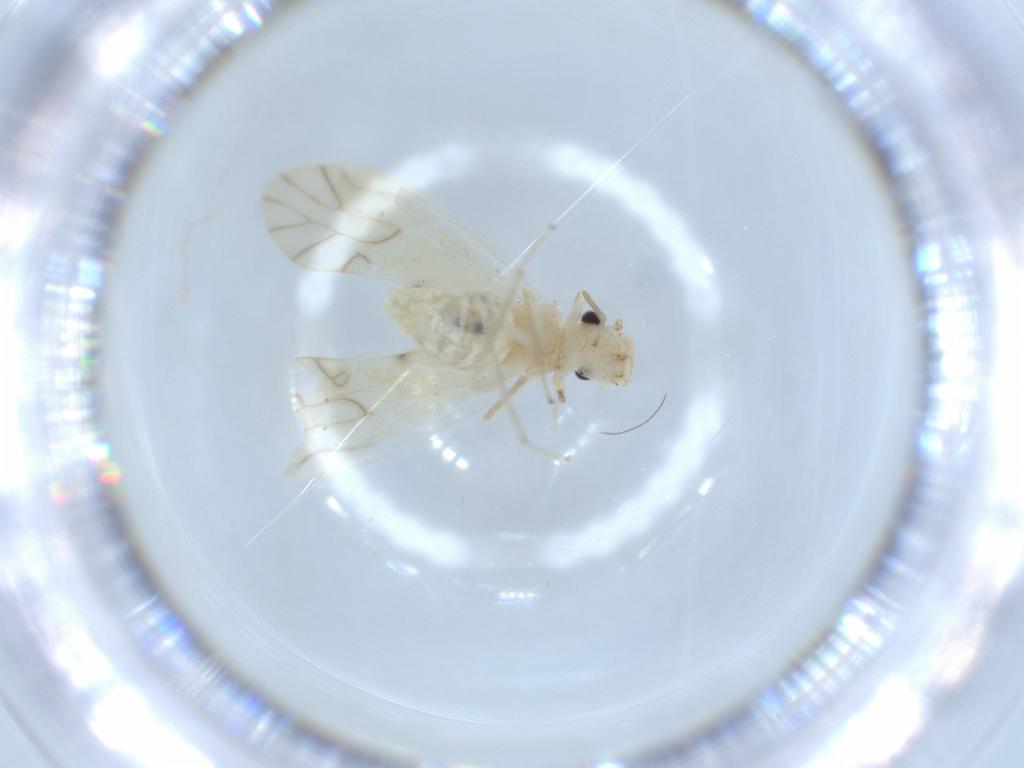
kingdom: Animalia
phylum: Arthropoda
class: Insecta
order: Psocodea
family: Caeciliusidae
